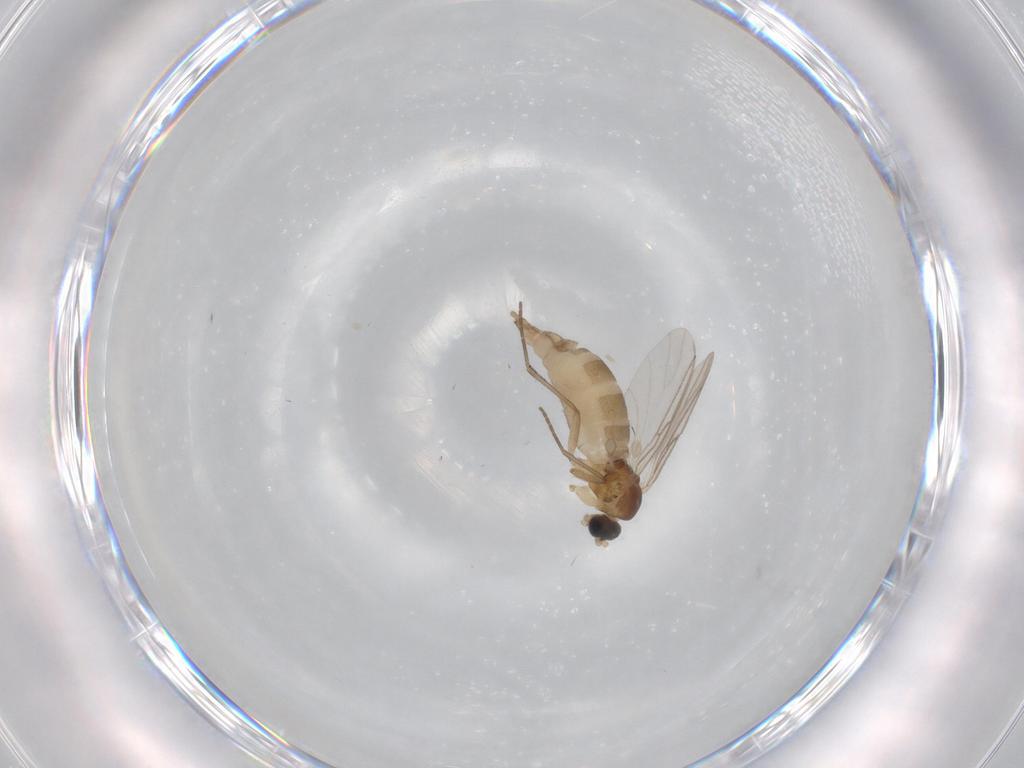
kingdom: Animalia
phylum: Arthropoda
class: Insecta
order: Diptera
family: Sciaridae
